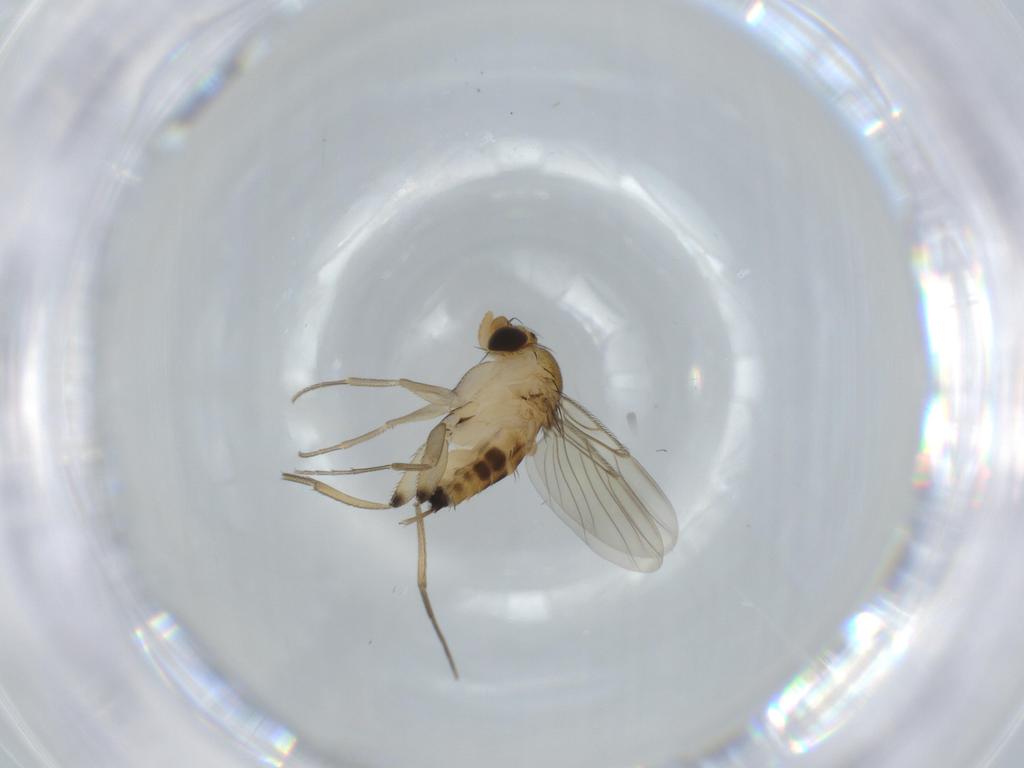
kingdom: Animalia
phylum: Arthropoda
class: Insecta
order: Diptera
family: Phoridae
